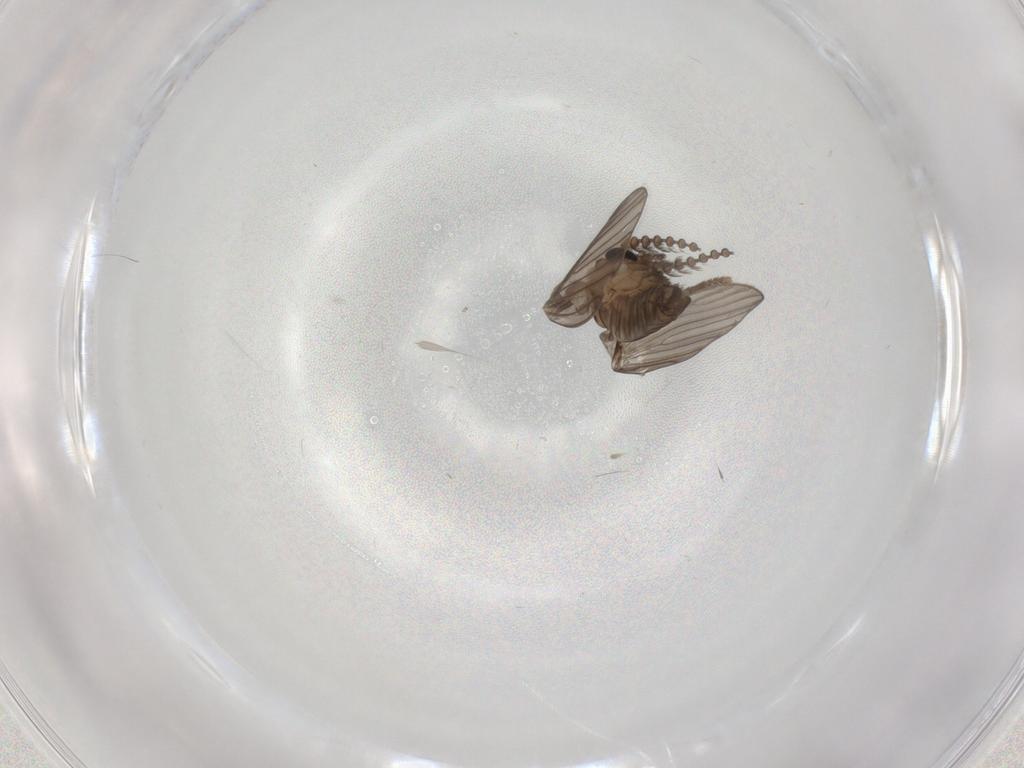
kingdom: Animalia
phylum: Arthropoda
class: Insecta
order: Diptera
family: Psychodidae
